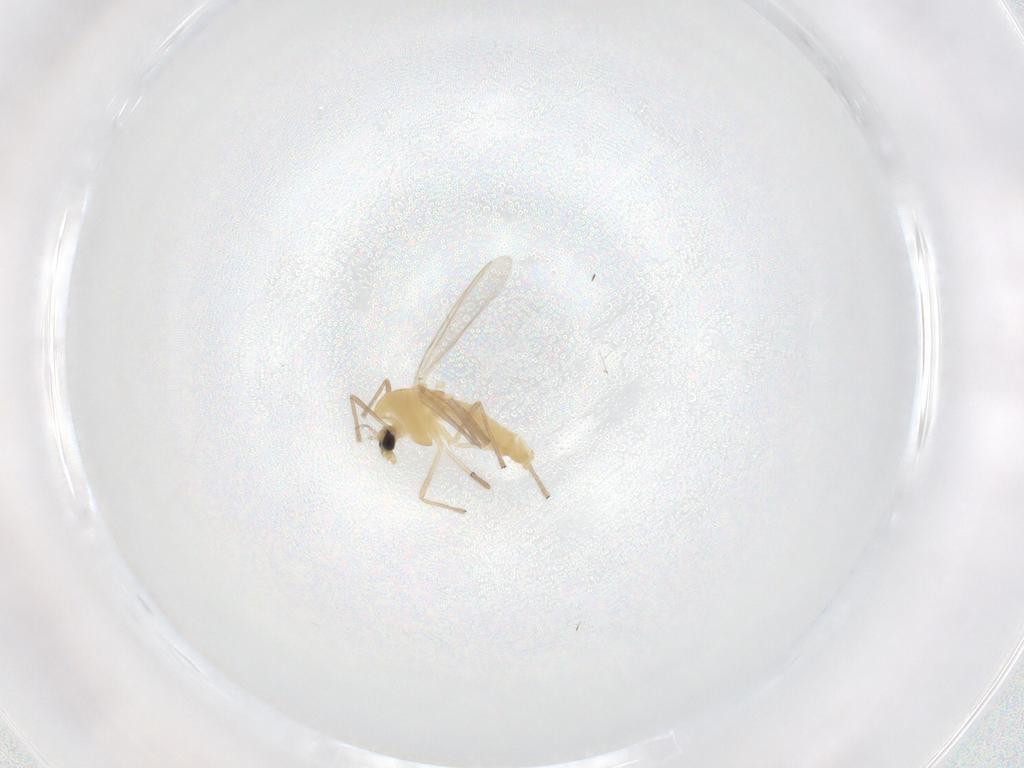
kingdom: Animalia
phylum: Arthropoda
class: Insecta
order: Diptera
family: Chironomidae
